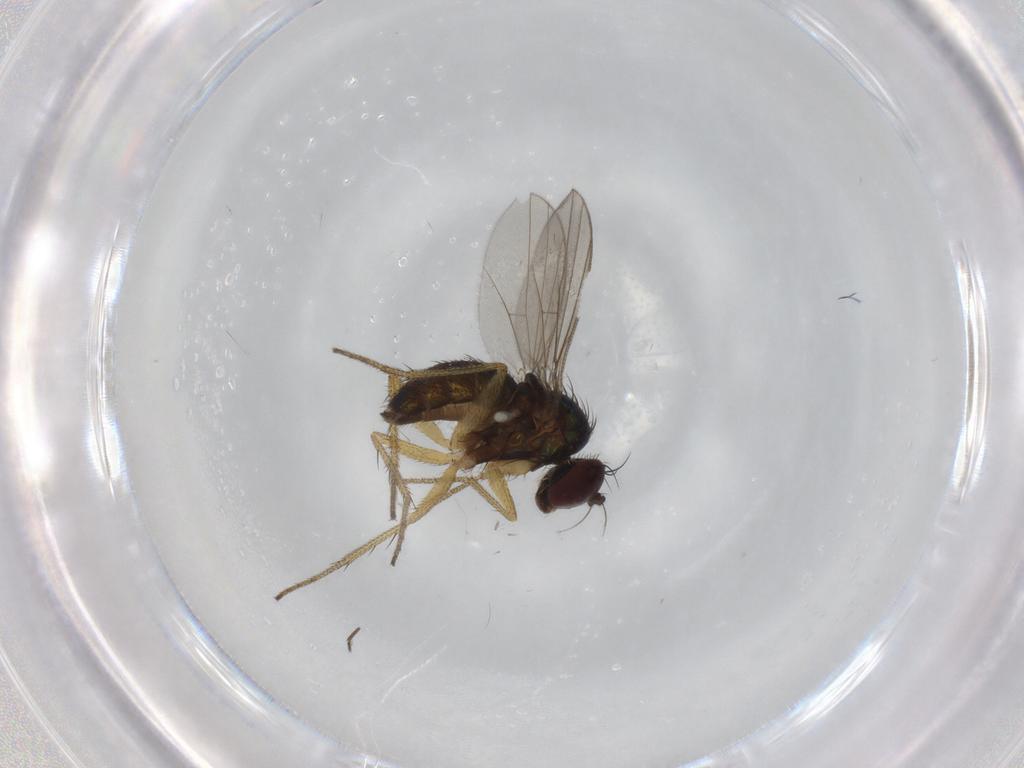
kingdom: Animalia
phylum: Arthropoda
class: Insecta
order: Diptera
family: Dolichopodidae
